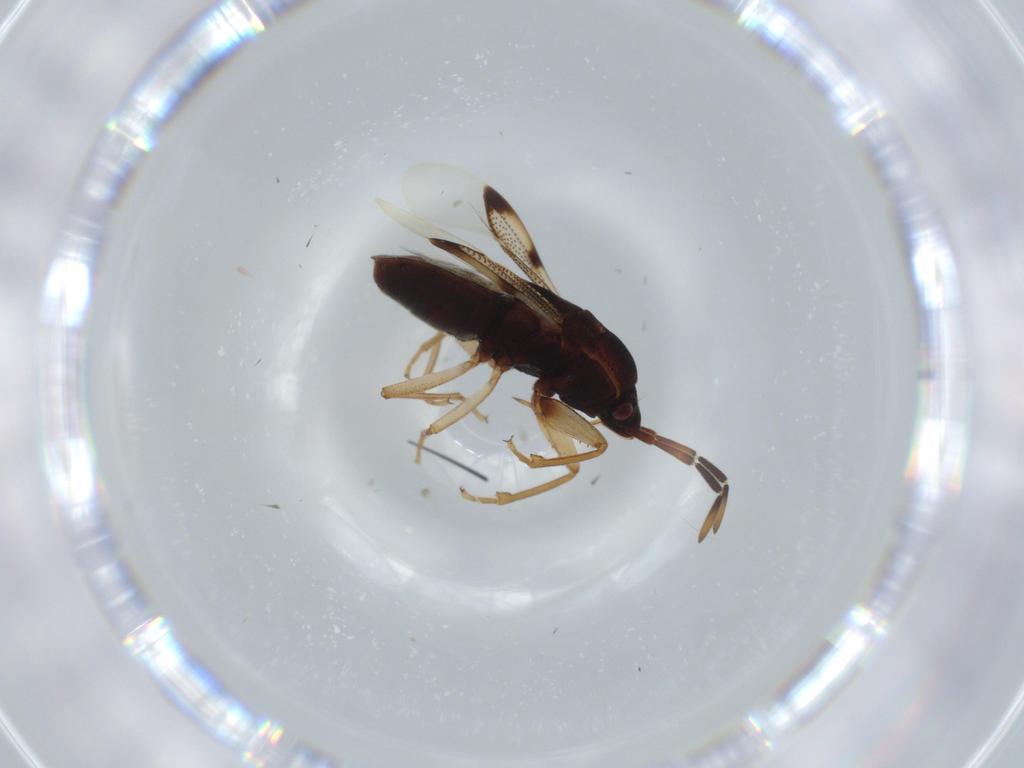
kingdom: Animalia
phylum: Arthropoda
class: Insecta
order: Hemiptera
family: Rhyparochromidae
